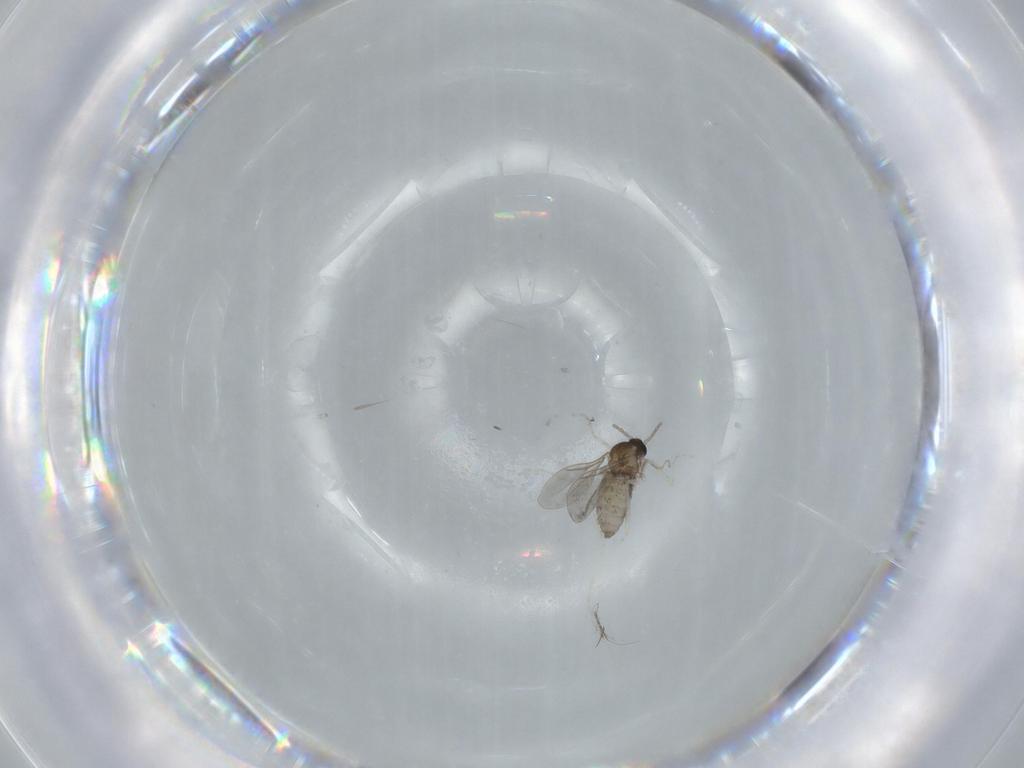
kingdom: Animalia
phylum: Arthropoda
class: Insecta
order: Diptera
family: Cecidomyiidae
